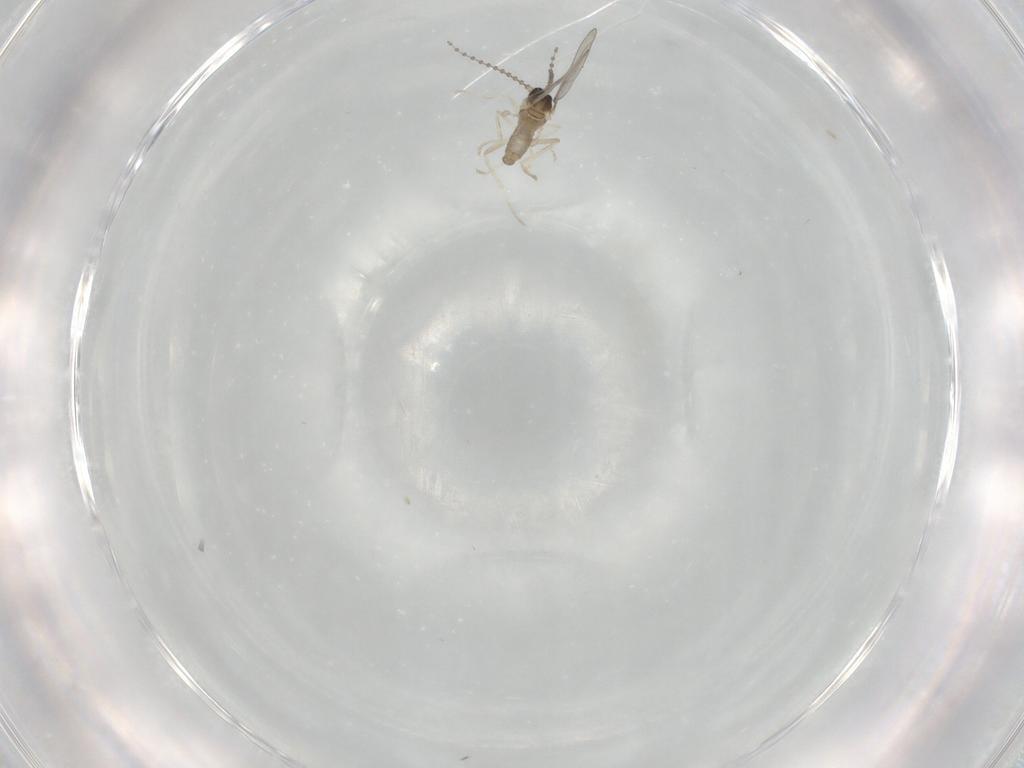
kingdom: Animalia
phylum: Arthropoda
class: Insecta
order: Diptera
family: Cecidomyiidae
